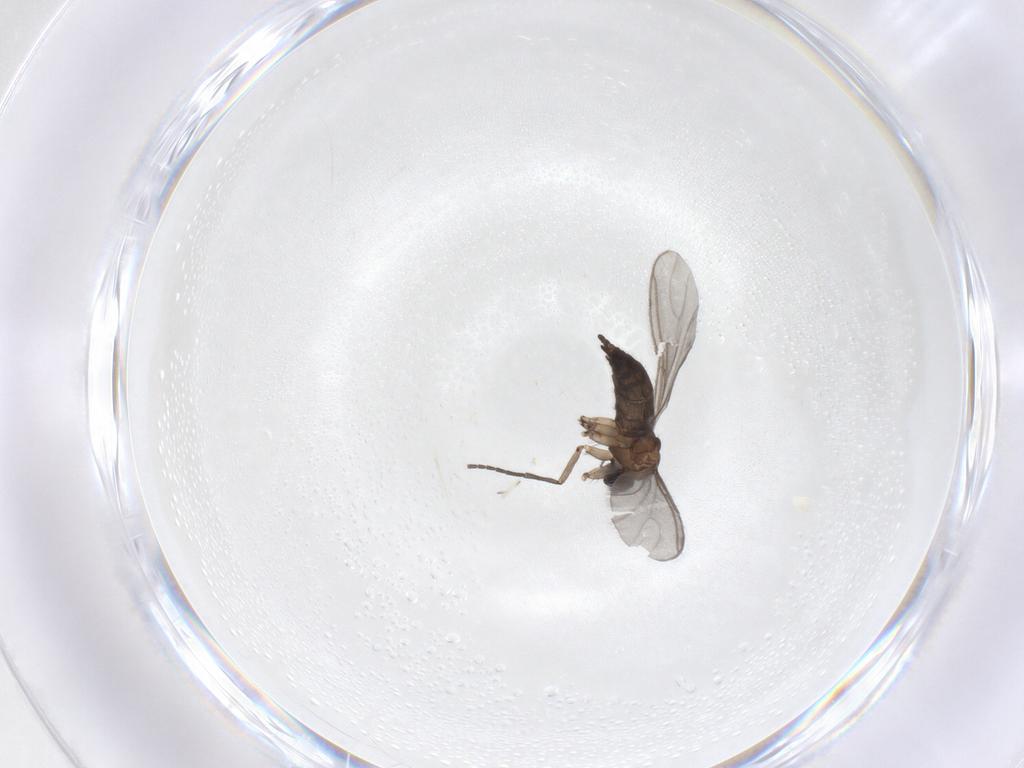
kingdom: Animalia
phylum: Arthropoda
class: Insecta
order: Diptera
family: Sciaridae
